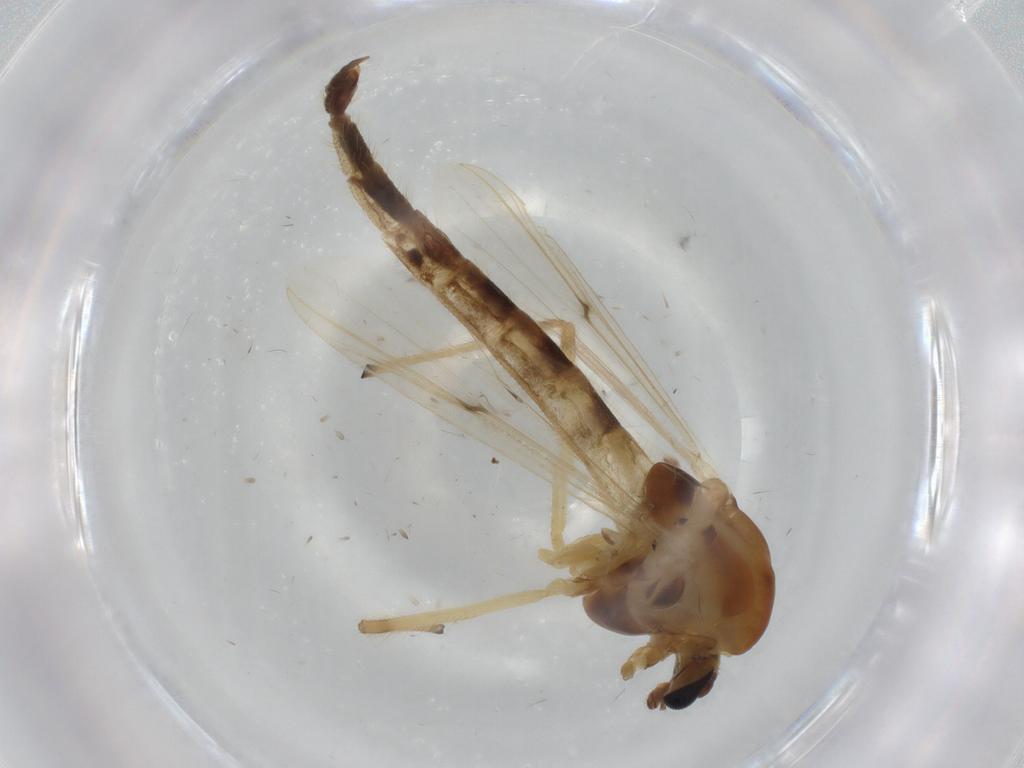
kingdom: Animalia
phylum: Arthropoda
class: Insecta
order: Diptera
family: Cecidomyiidae
